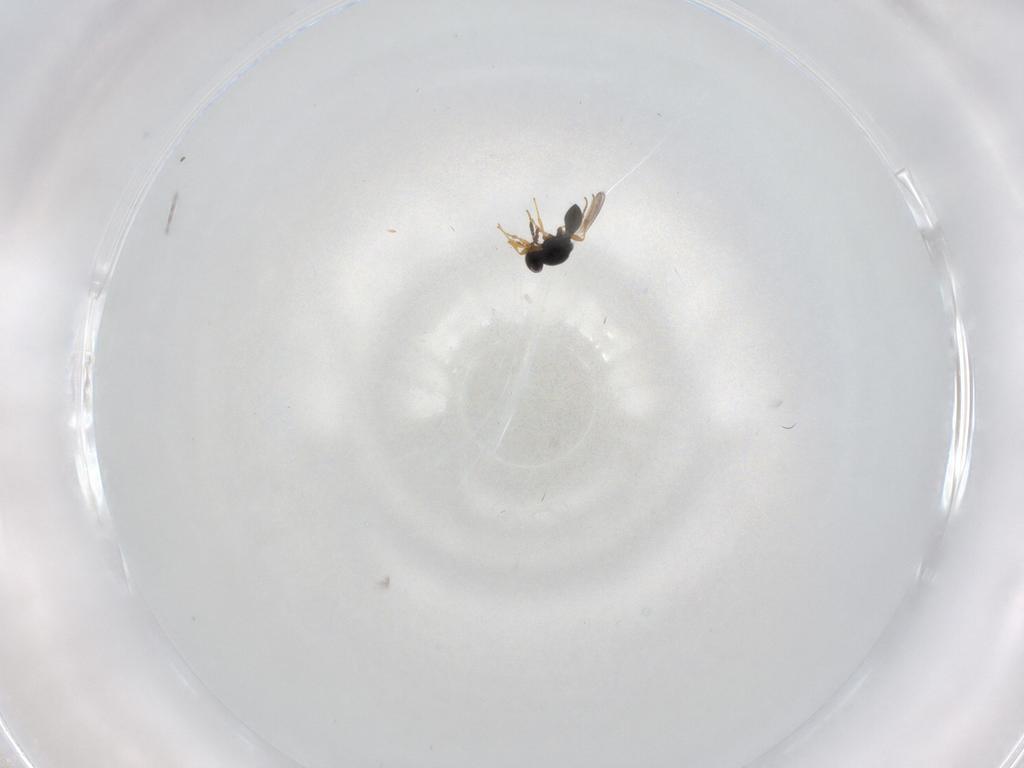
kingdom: Animalia
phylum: Arthropoda
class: Insecta
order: Hymenoptera
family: Platygastridae
